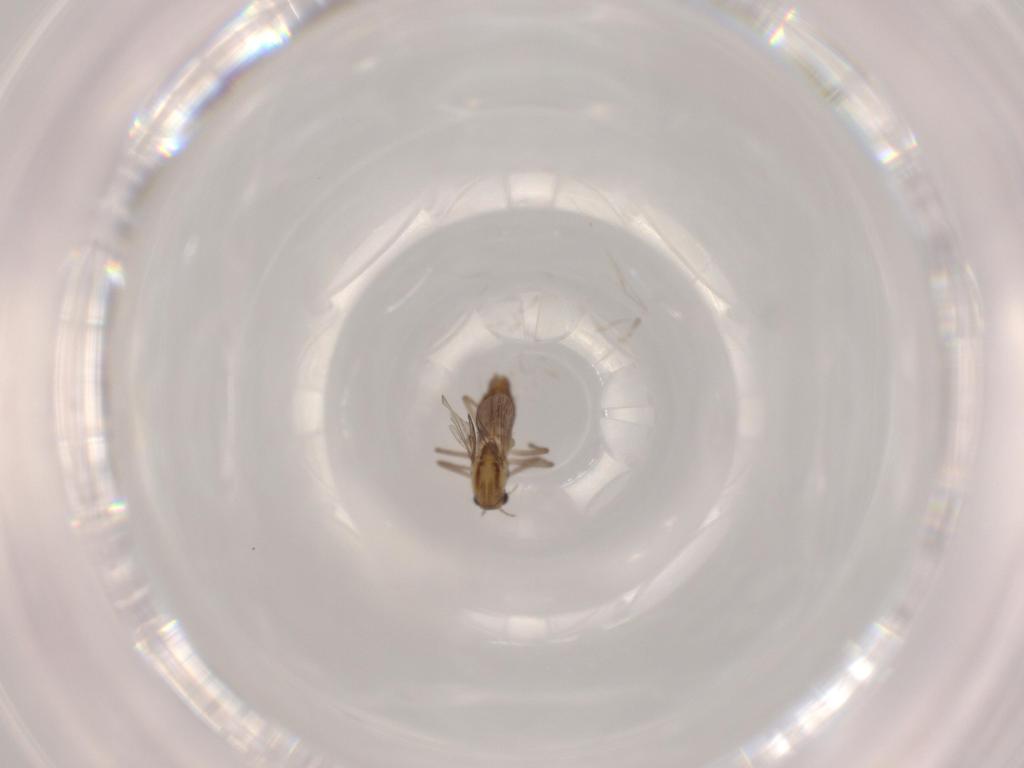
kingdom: Animalia
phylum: Arthropoda
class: Insecta
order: Diptera
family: Chironomidae
